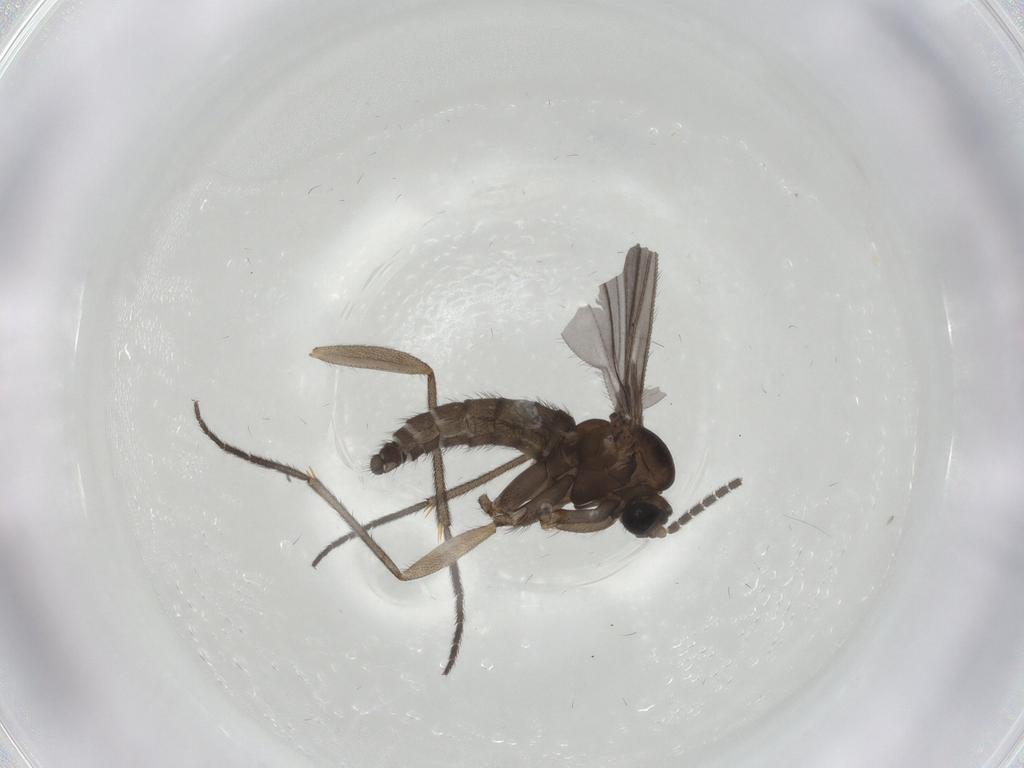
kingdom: Animalia
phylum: Arthropoda
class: Insecta
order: Diptera
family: Sciaridae
